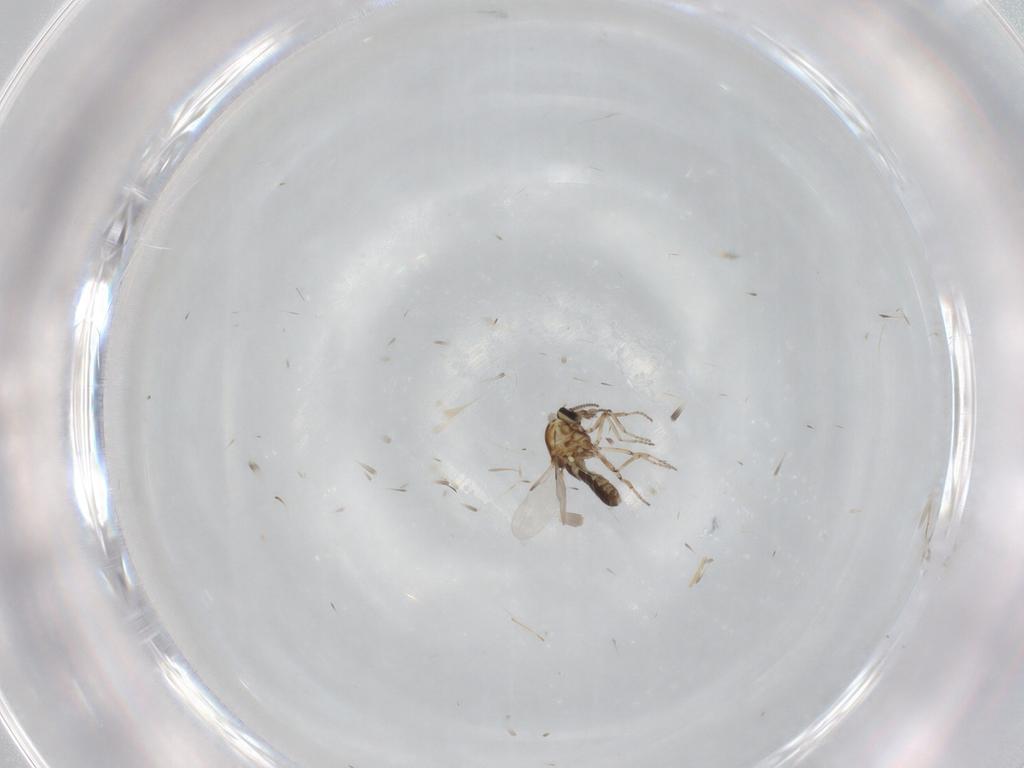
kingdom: Animalia
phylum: Arthropoda
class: Insecta
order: Diptera
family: Ceratopogonidae
